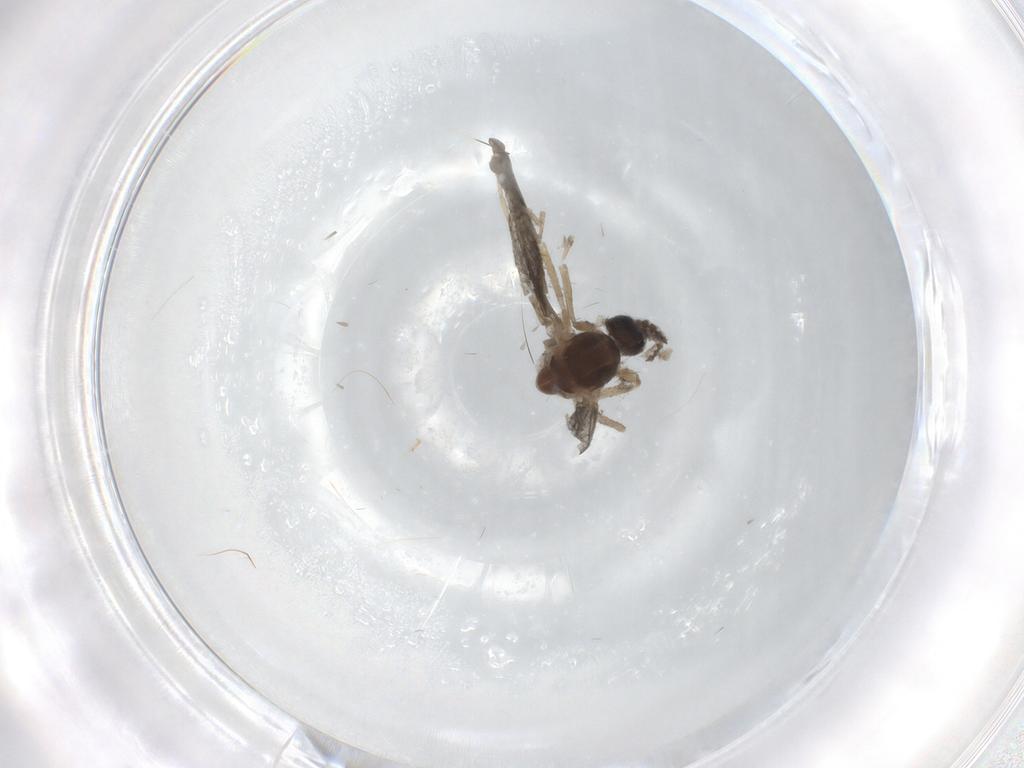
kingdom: Animalia
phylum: Arthropoda
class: Insecta
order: Diptera
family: Cecidomyiidae
